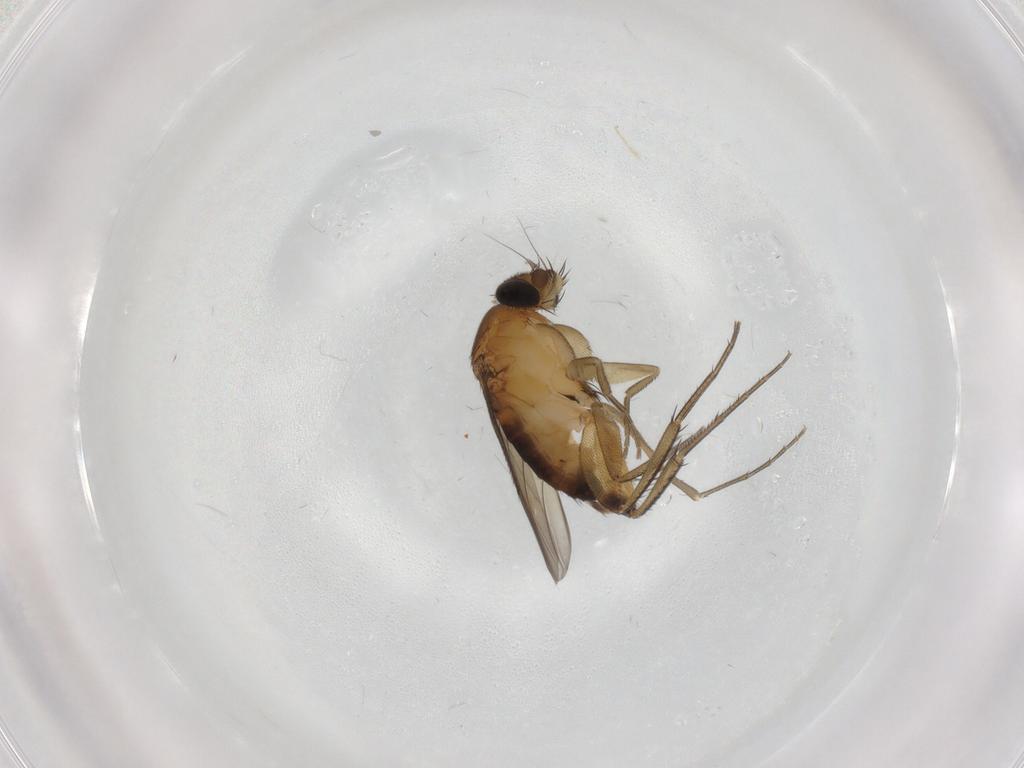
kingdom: Animalia
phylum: Arthropoda
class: Insecta
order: Diptera
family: Phoridae
